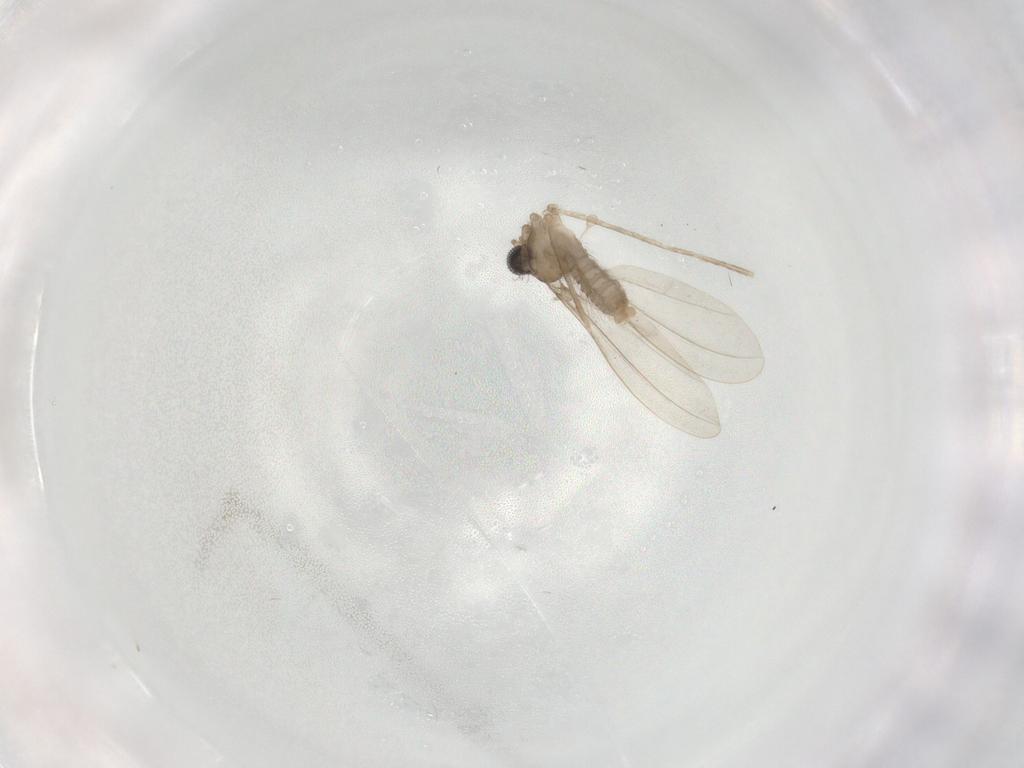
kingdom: Animalia
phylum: Arthropoda
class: Insecta
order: Diptera
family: Cecidomyiidae
